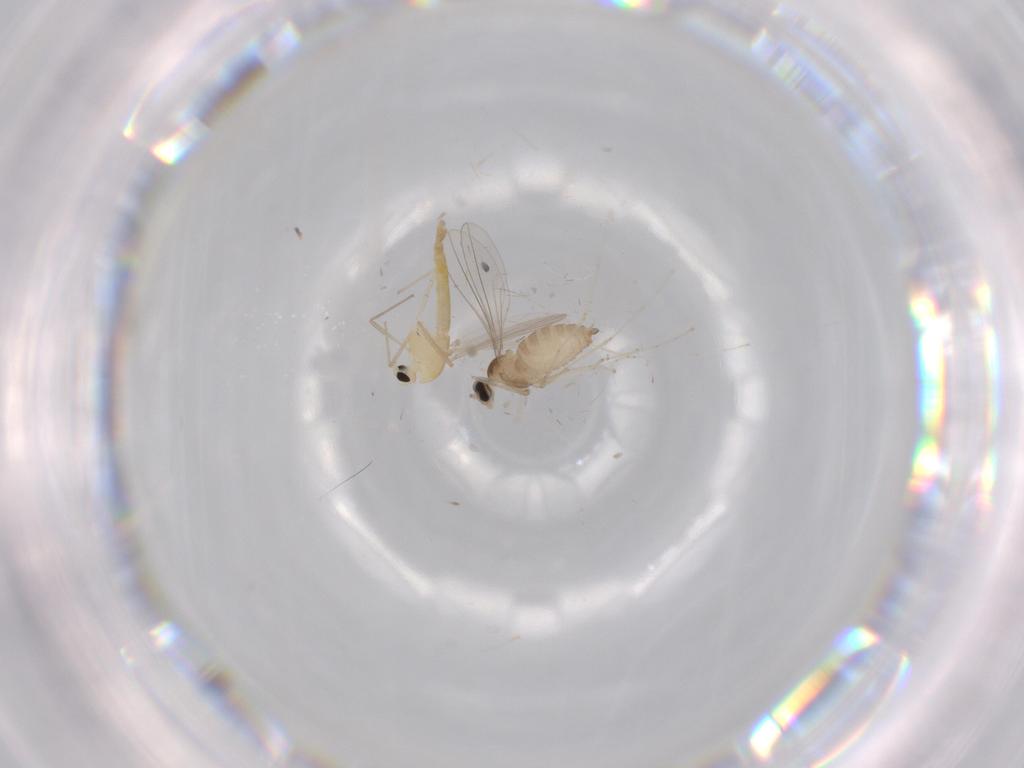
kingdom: Animalia
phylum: Arthropoda
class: Insecta
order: Diptera
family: Chironomidae
